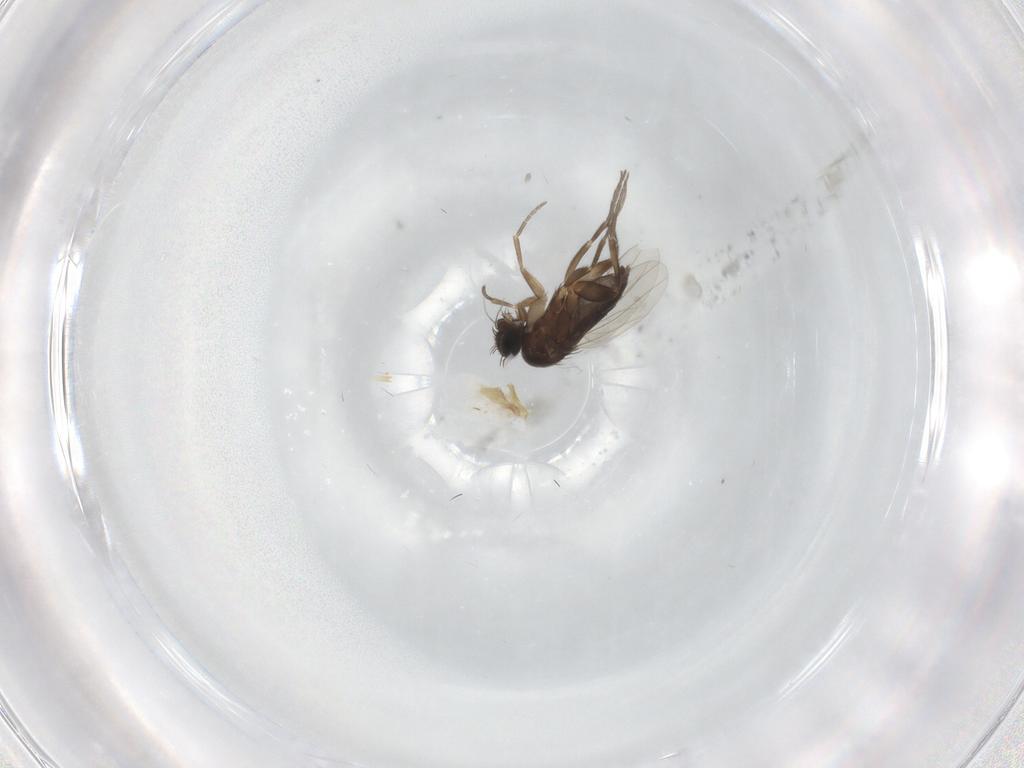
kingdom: Animalia
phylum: Arthropoda
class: Insecta
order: Diptera
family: Phoridae
